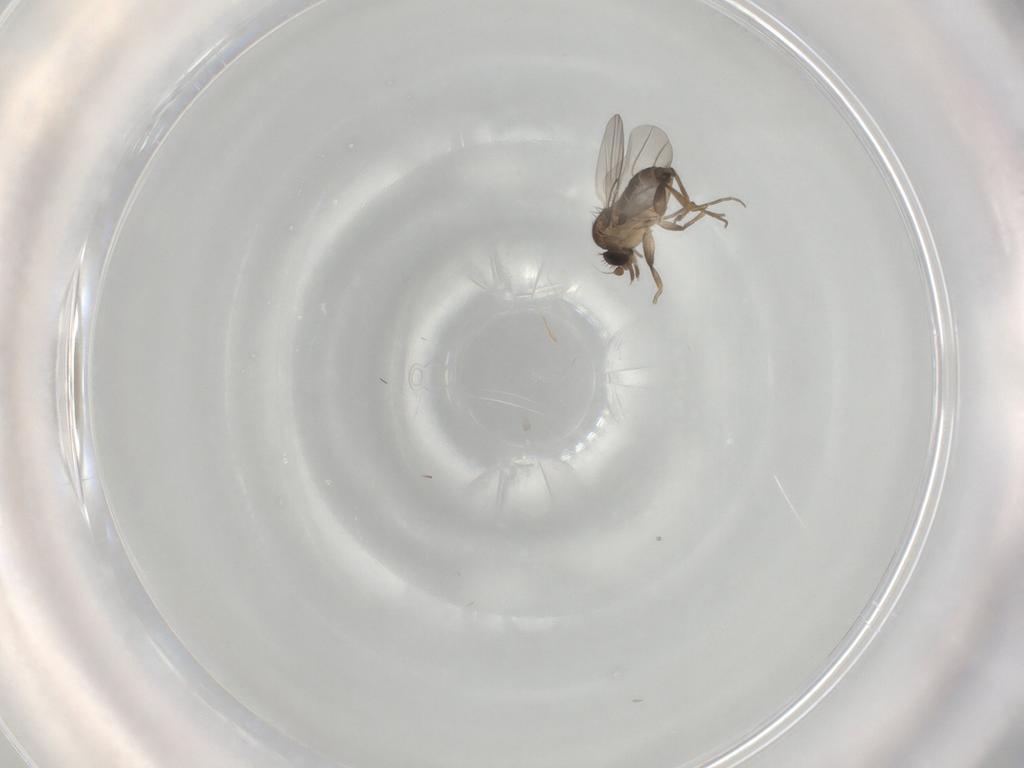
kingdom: Animalia
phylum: Arthropoda
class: Insecta
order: Diptera
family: Phoridae
